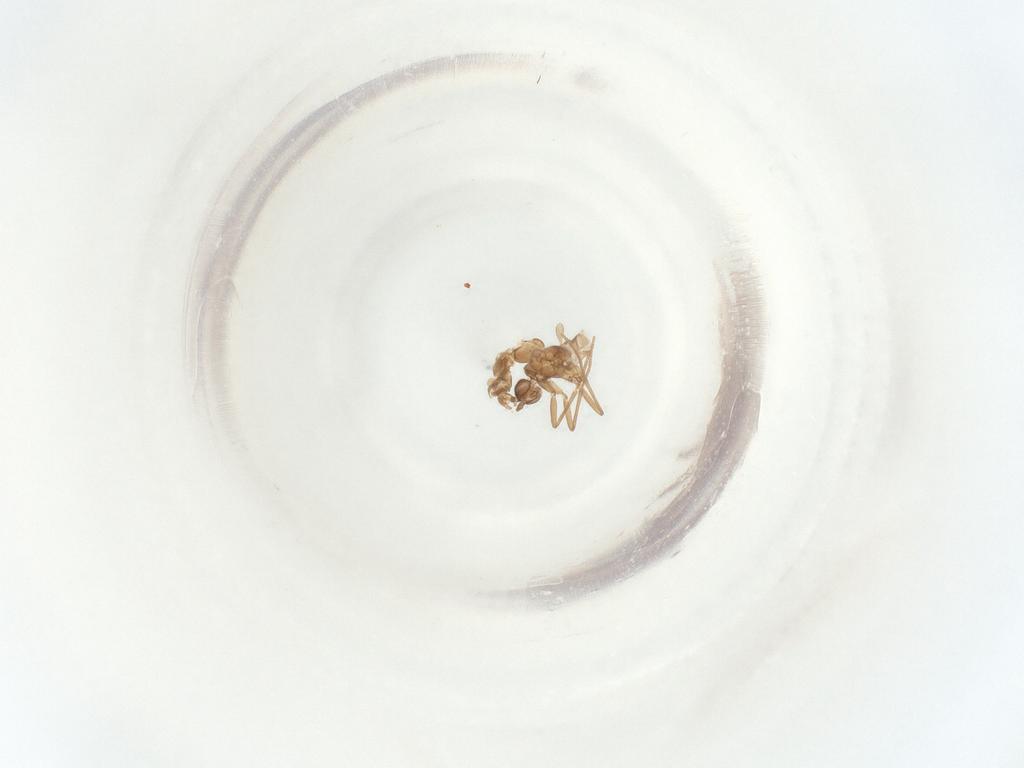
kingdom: Animalia
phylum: Arthropoda
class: Insecta
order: Diptera
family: Sciaridae
